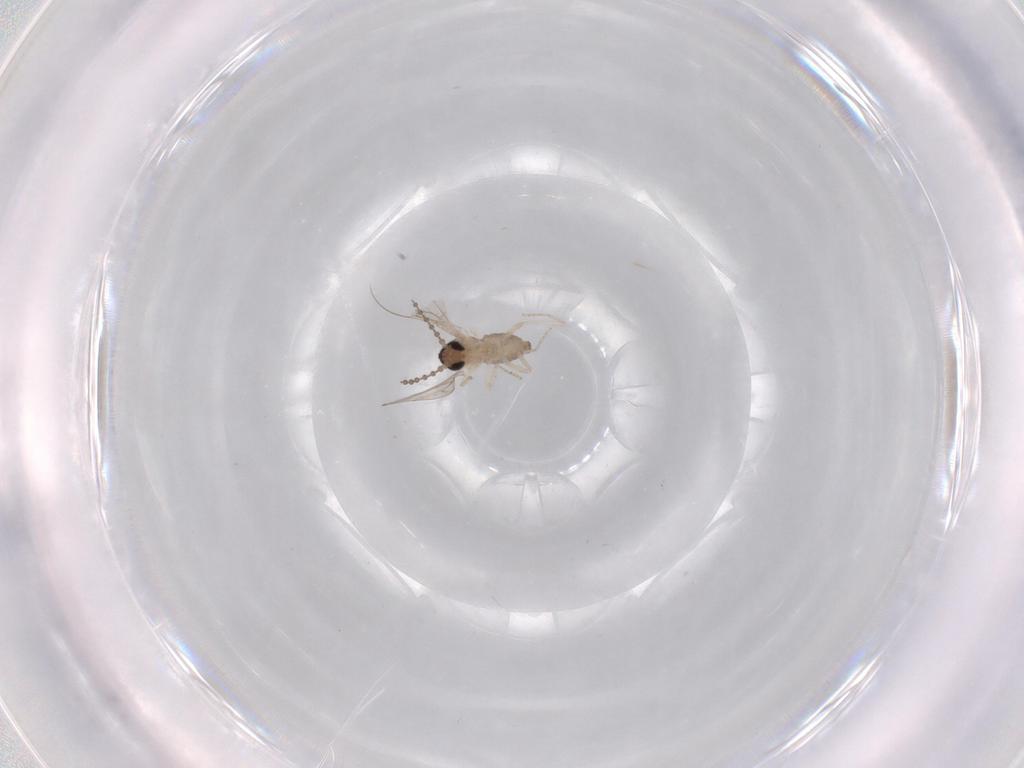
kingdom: Animalia
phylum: Arthropoda
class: Insecta
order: Diptera
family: Cecidomyiidae
